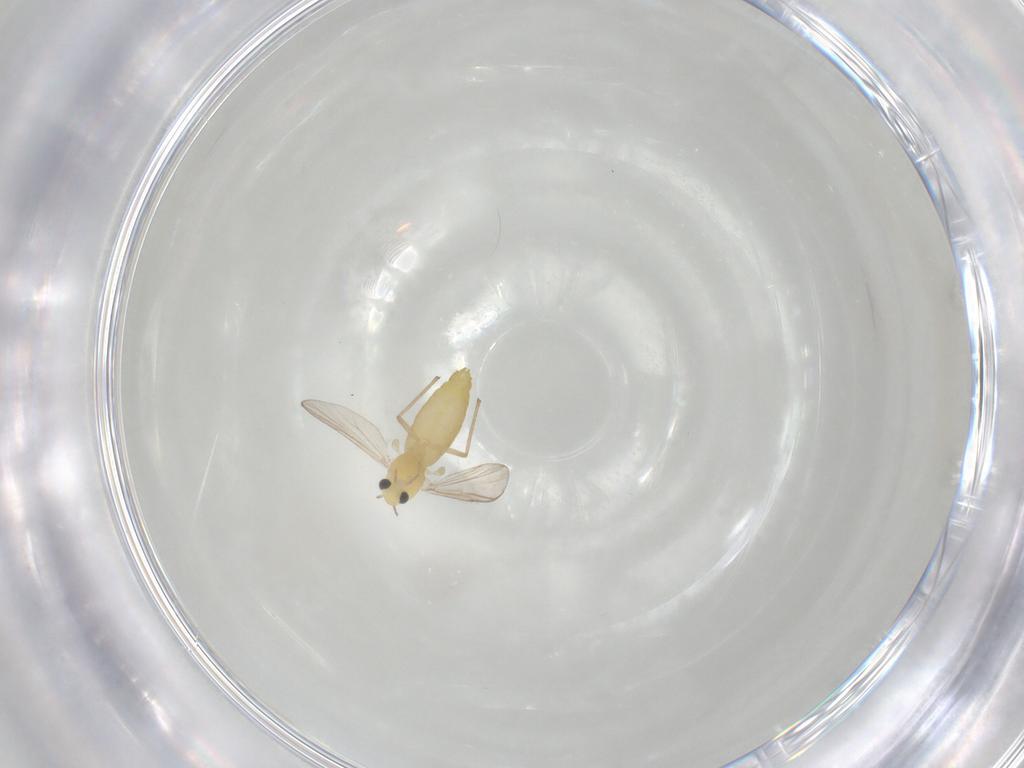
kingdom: Animalia
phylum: Arthropoda
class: Insecta
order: Diptera
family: Chironomidae
